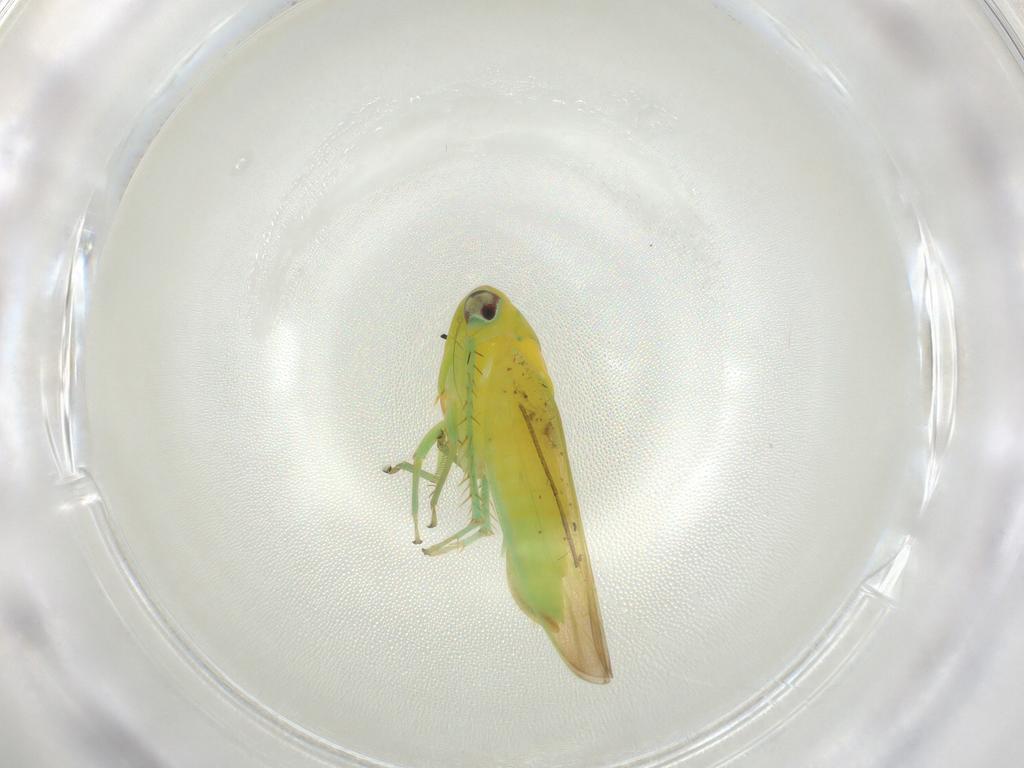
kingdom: Animalia
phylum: Arthropoda
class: Insecta
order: Hemiptera
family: Cicadellidae
